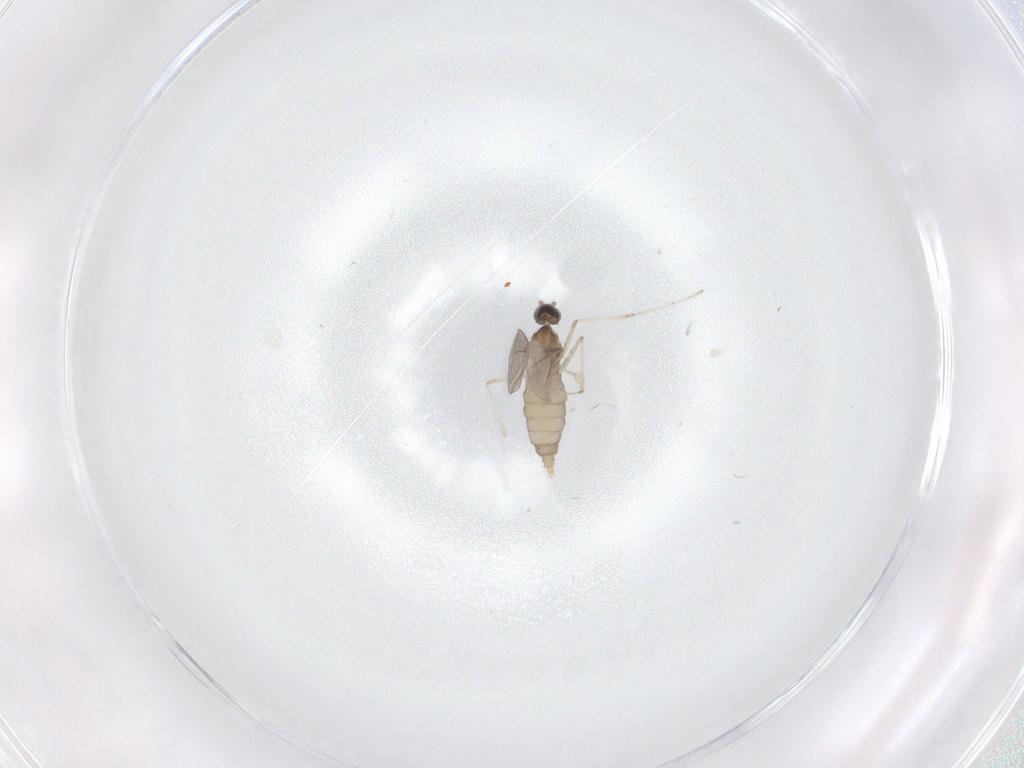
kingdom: Animalia
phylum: Arthropoda
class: Insecta
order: Diptera
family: Cecidomyiidae
